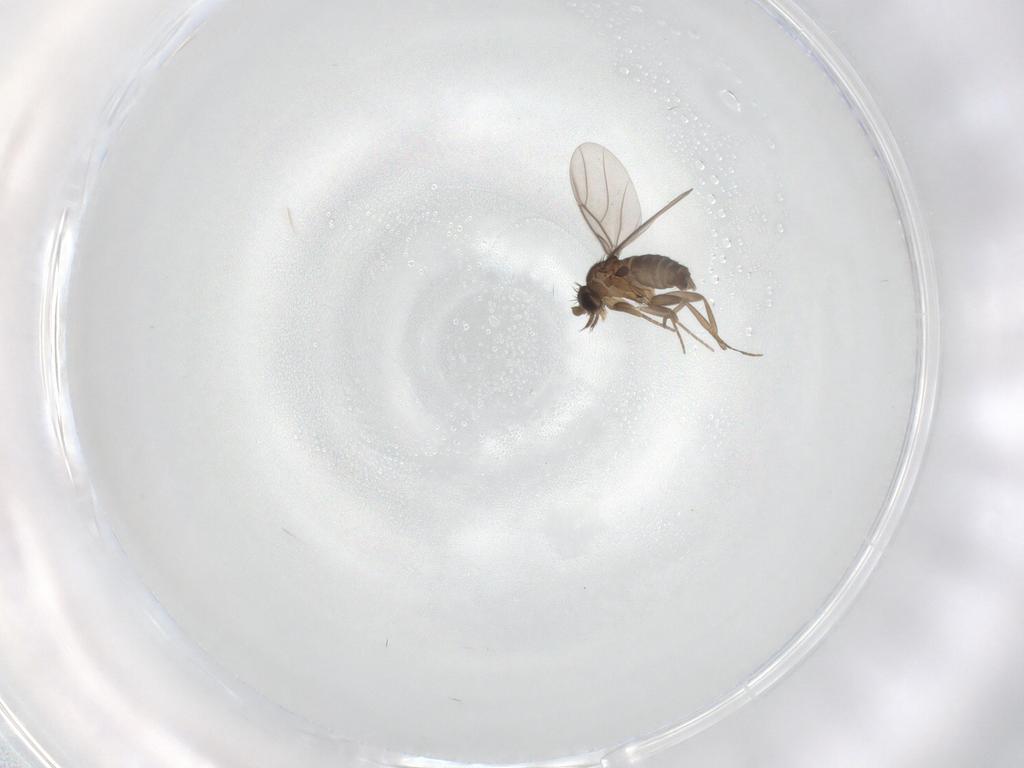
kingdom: Animalia
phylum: Arthropoda
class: Insecta
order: Diptera
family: Phoridae
